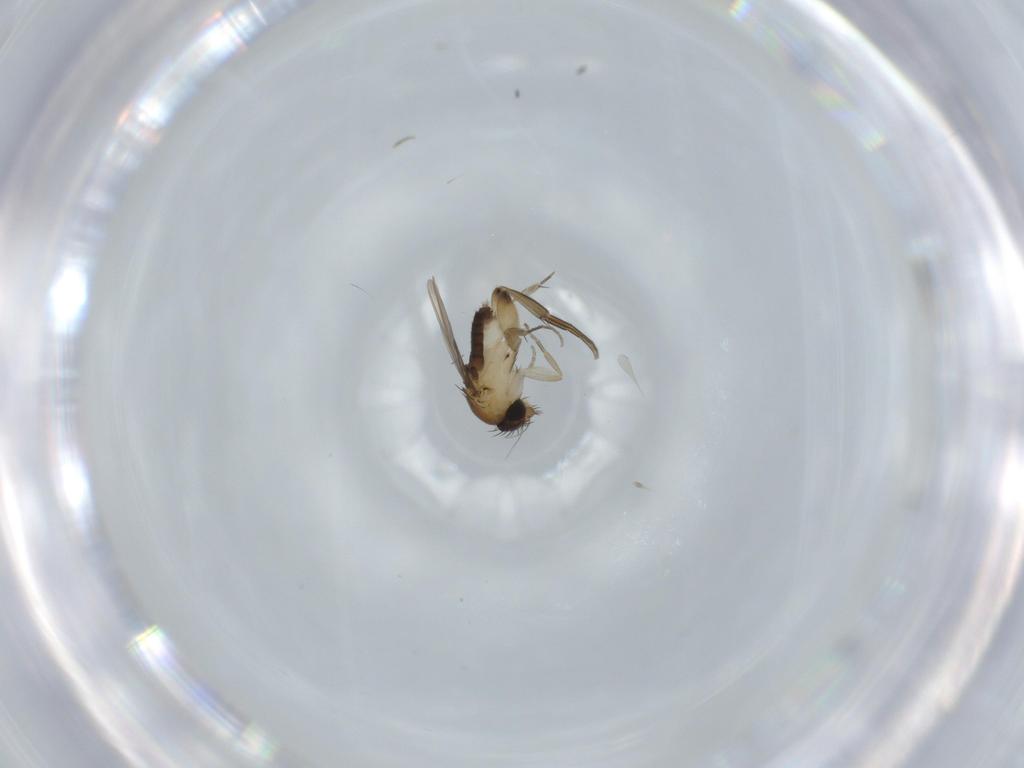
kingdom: Animalia
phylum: Arthropoda
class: Insecta
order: Diptera
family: Phoridae
